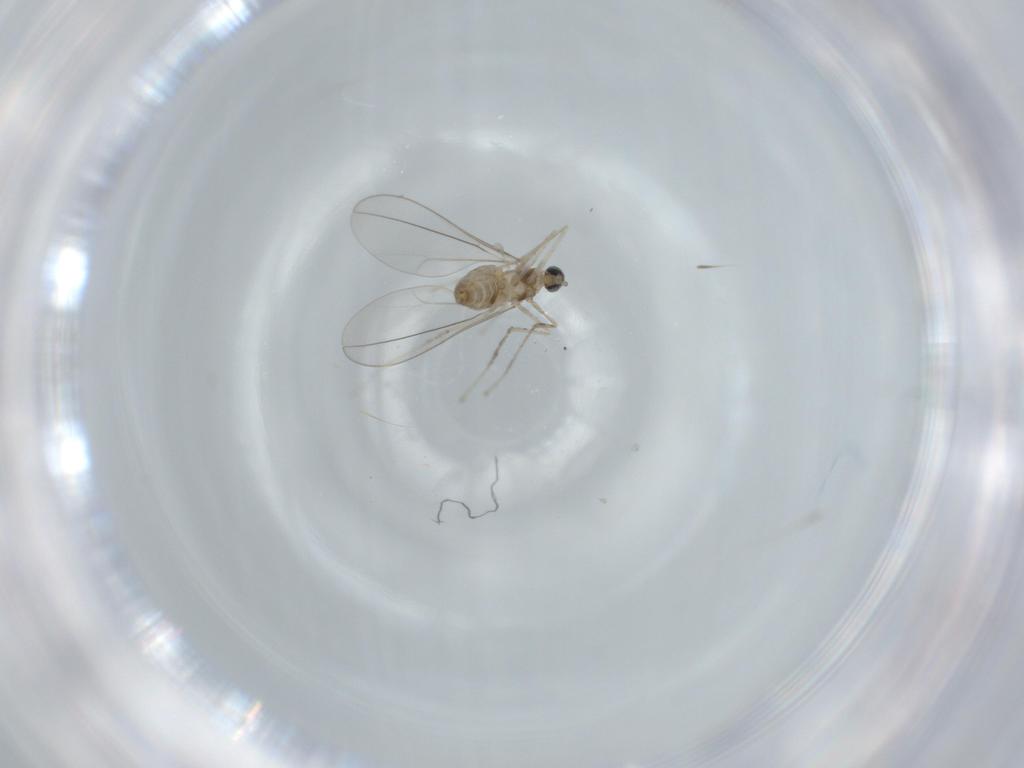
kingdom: Animalia
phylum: Arthropoda
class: Insecta
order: Diptera
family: Cecidomyiidae
